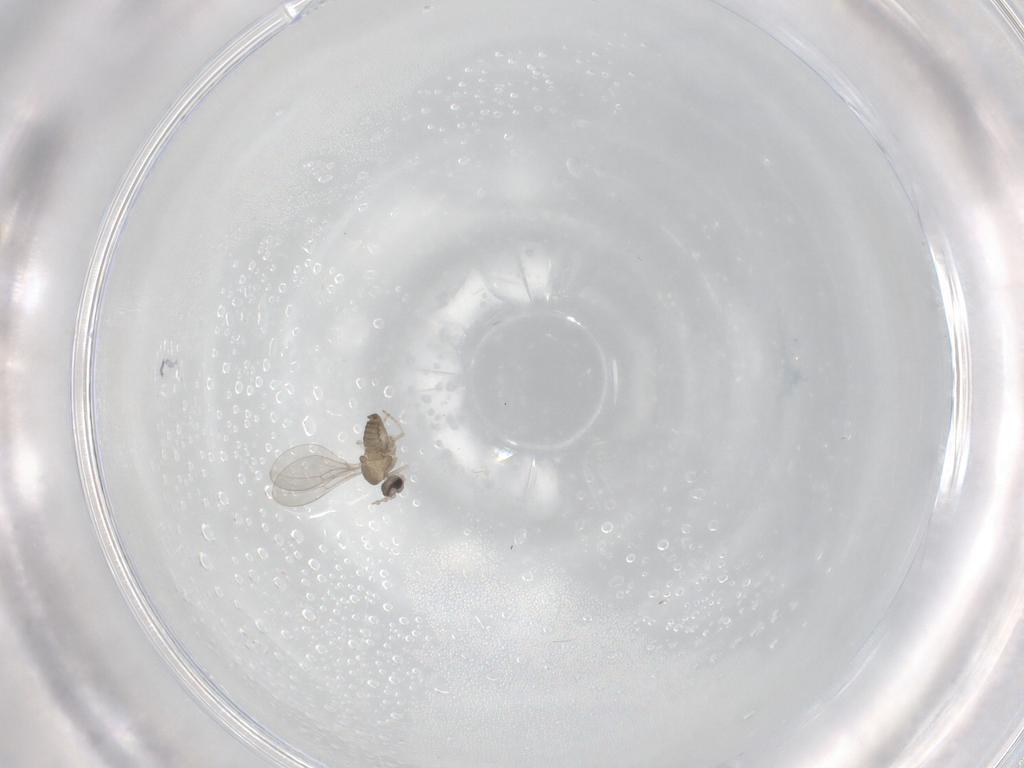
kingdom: Animalia
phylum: Arthropoda
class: Insecta
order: Diptera
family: Cecidomyiidae
